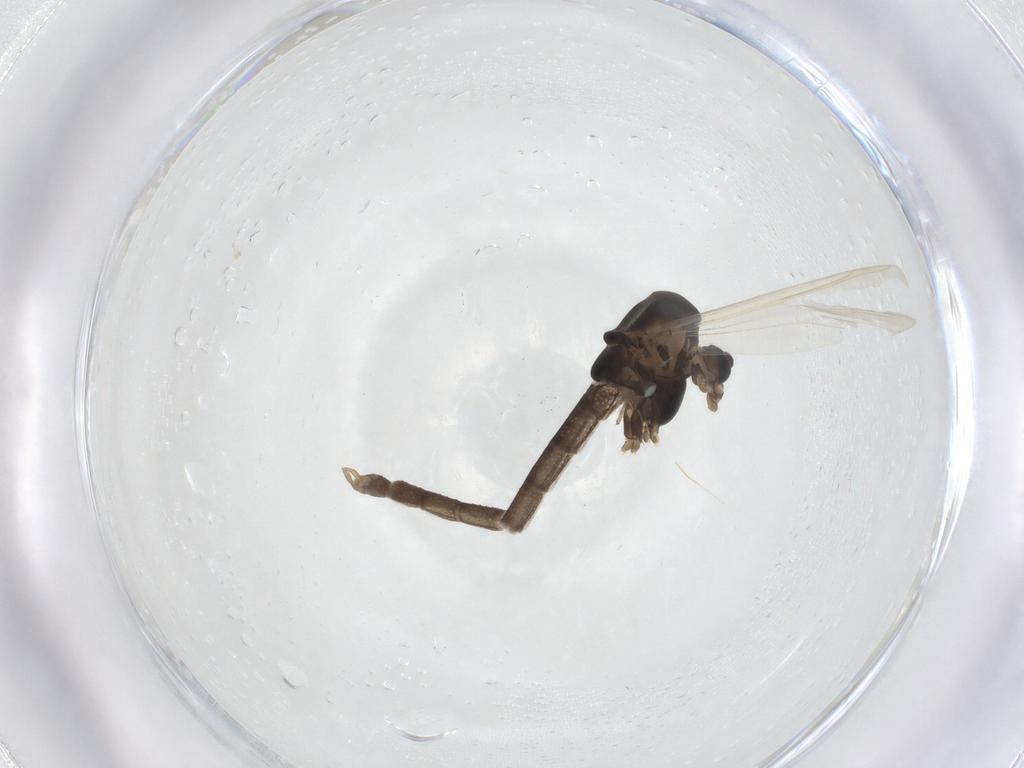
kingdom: Animalia
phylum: Arthropoda
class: Insecta
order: Diptera
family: Chironomidae
